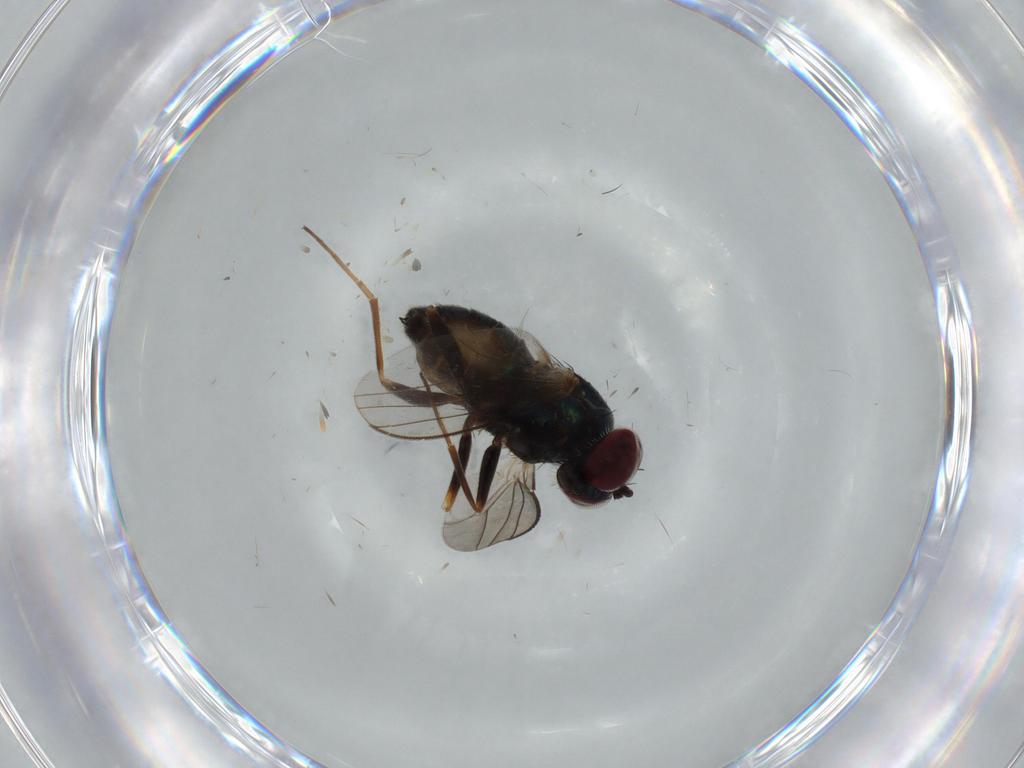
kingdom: Animalia
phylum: Arthropoda
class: Insecta
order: Diptera
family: Dolichopodidae
